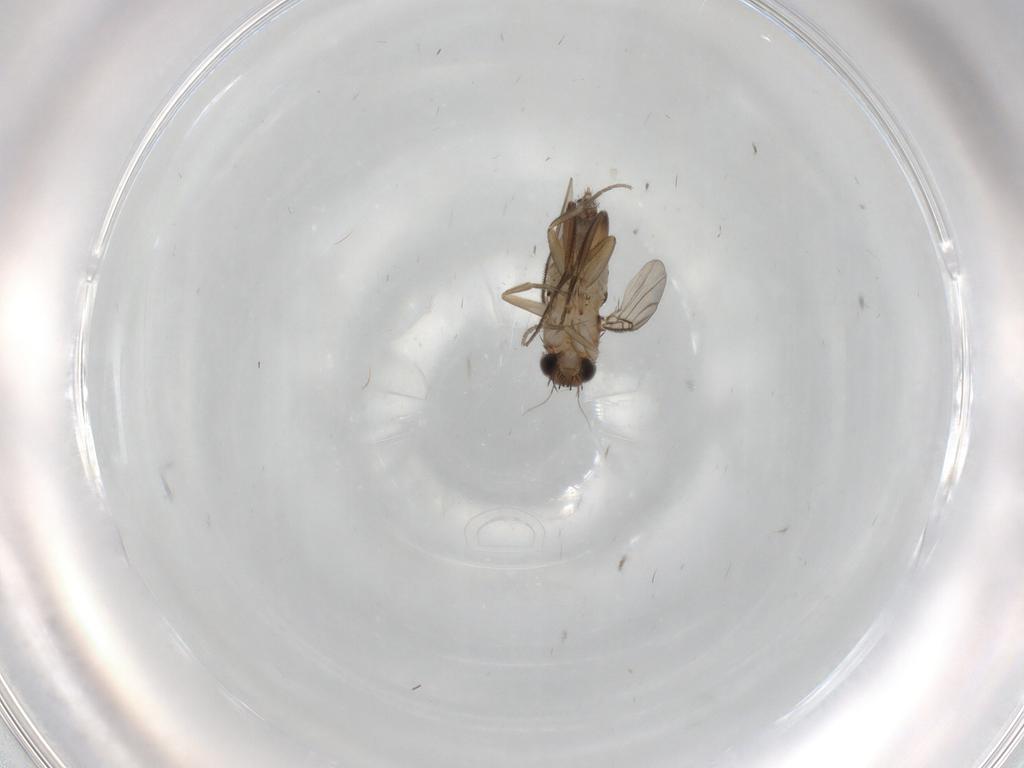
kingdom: Animalia
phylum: Arthropoda
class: Insecta
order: Diptera
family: Phoridae
